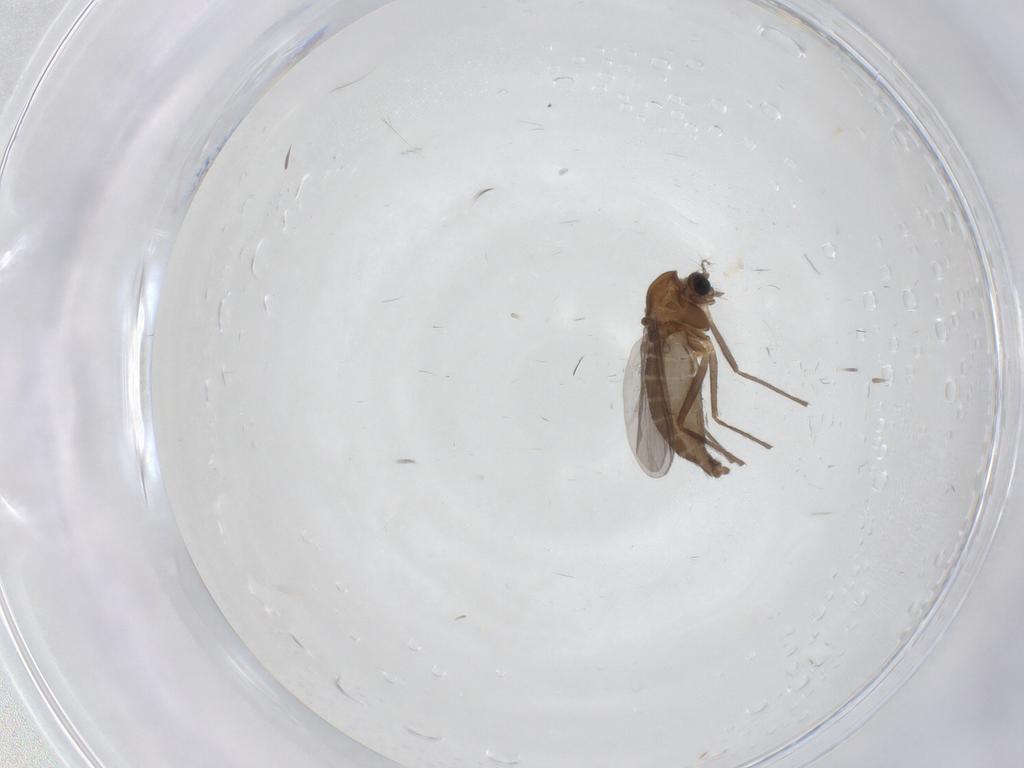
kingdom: Animalia
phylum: Arthropoda
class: Insecta
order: Diptera
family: Chironomidae
